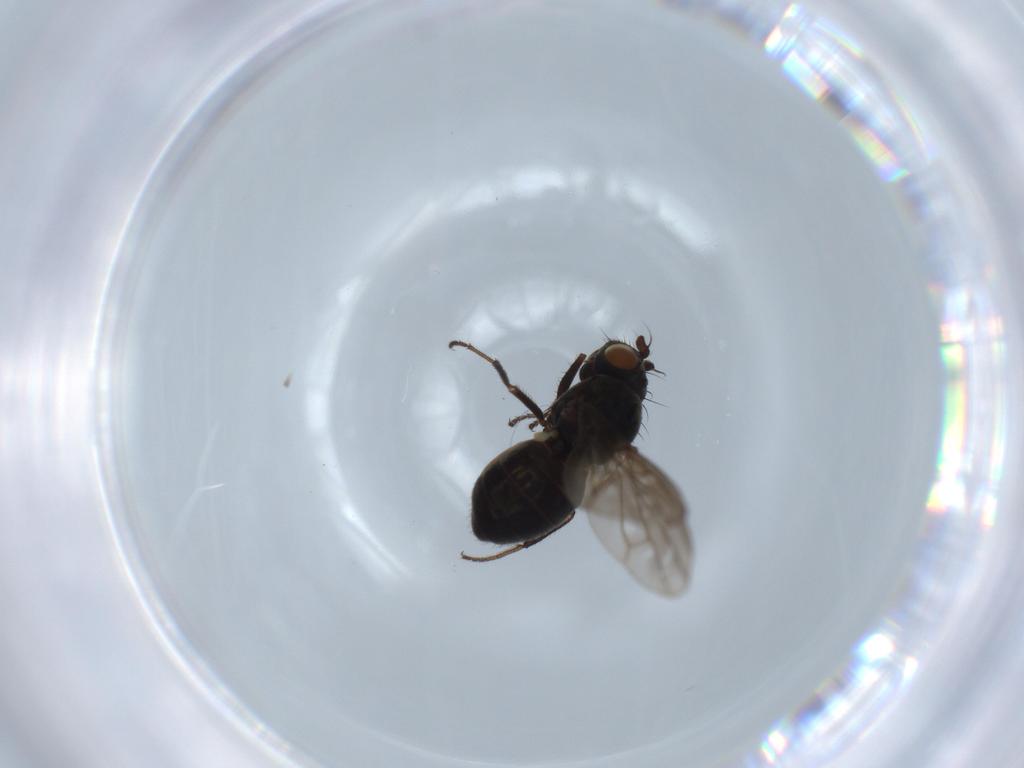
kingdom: Animalia
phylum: Arthropoda
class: Insecta
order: Diptera
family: Ephydridae
